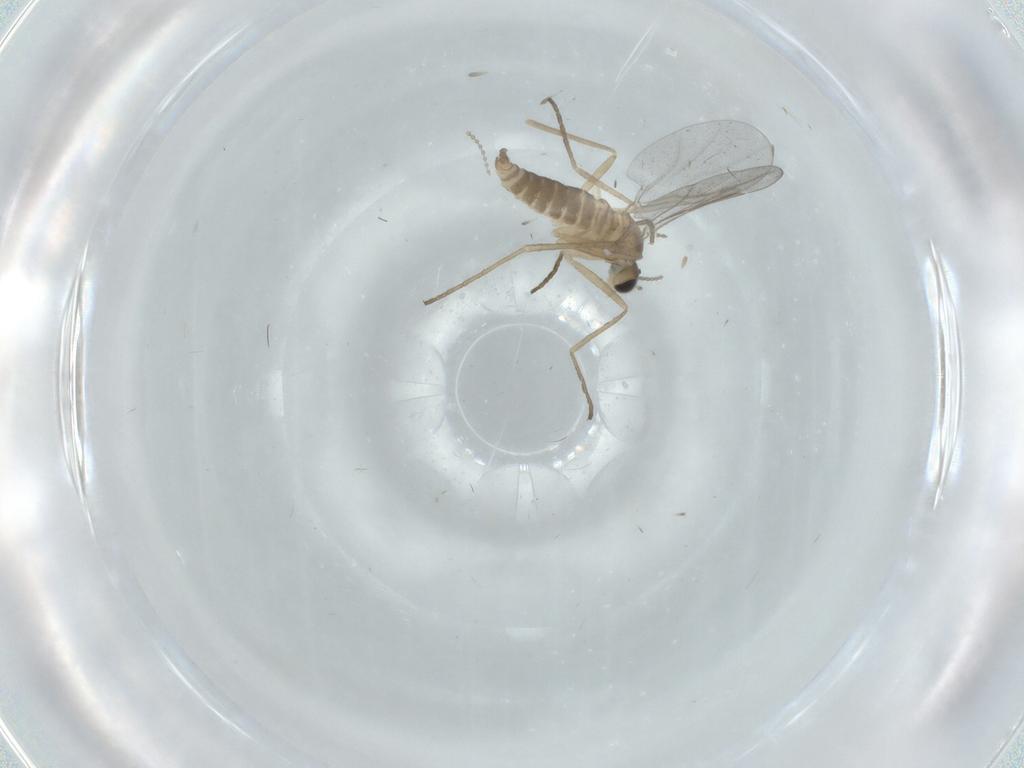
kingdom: Animalia
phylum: Arthropoda
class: Insecta
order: Diptera
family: Cecidomyiidae
